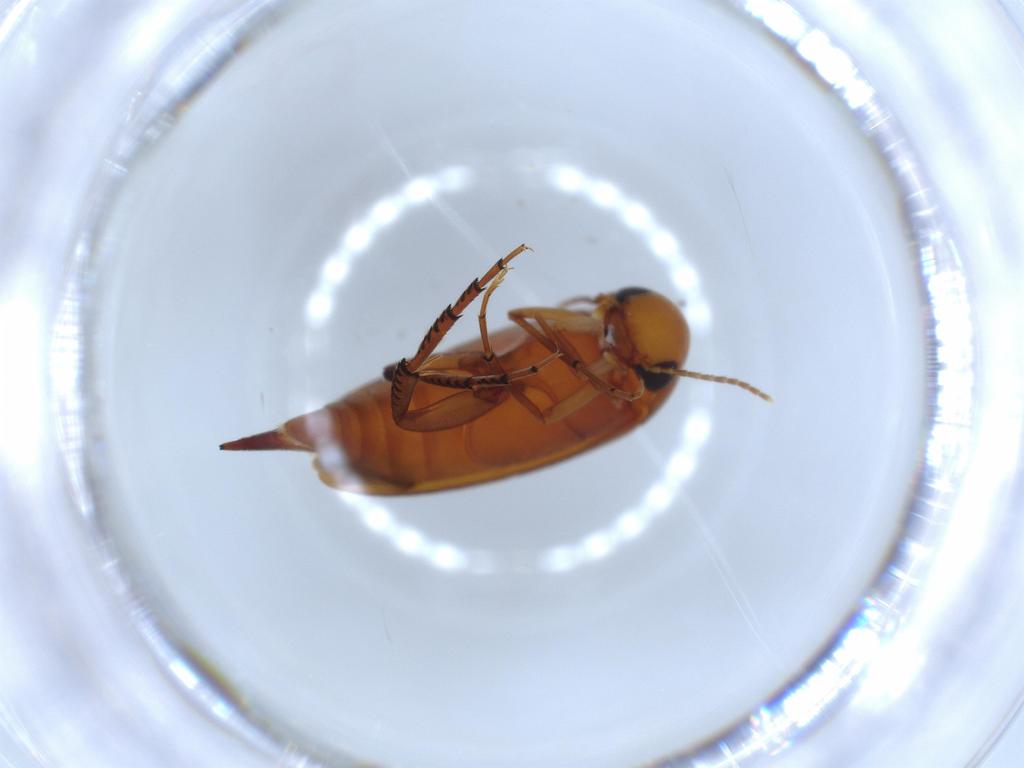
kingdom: Animalia
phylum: Arthropoda
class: Insecta
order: Coleoptera
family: Mordellidae
